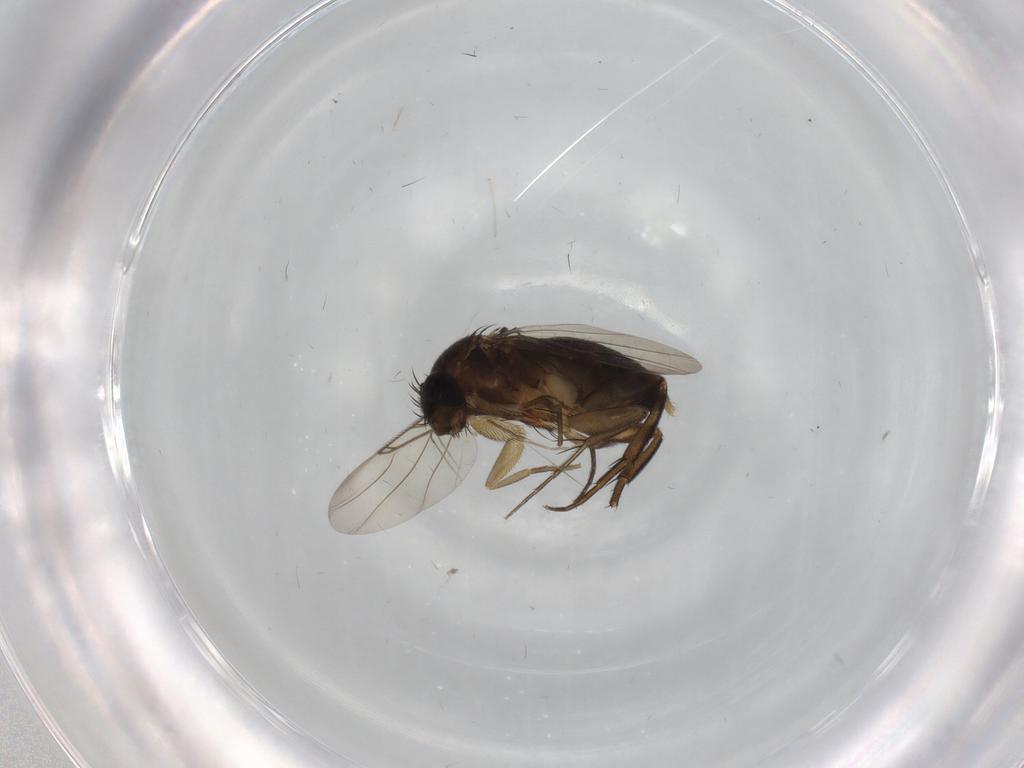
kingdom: Animalia
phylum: Arthropoda
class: Insecta
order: Diptera
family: Phoridae
